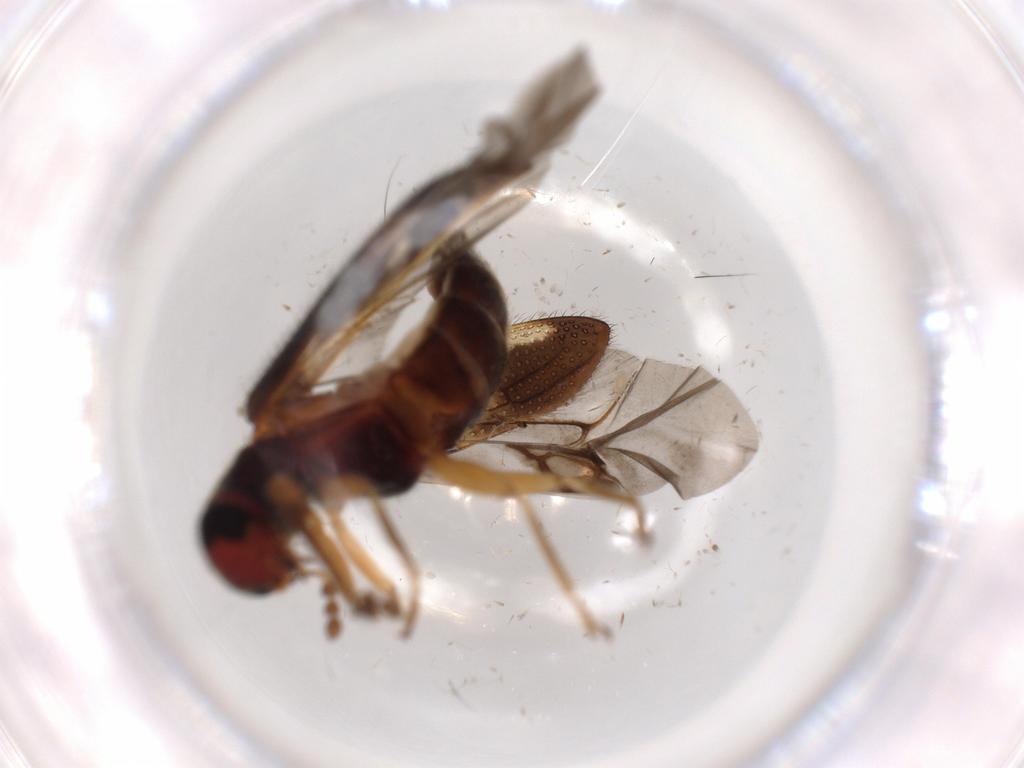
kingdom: Animalia
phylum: Arthropoda
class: Insecta
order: Coleoptera
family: Cleridae
